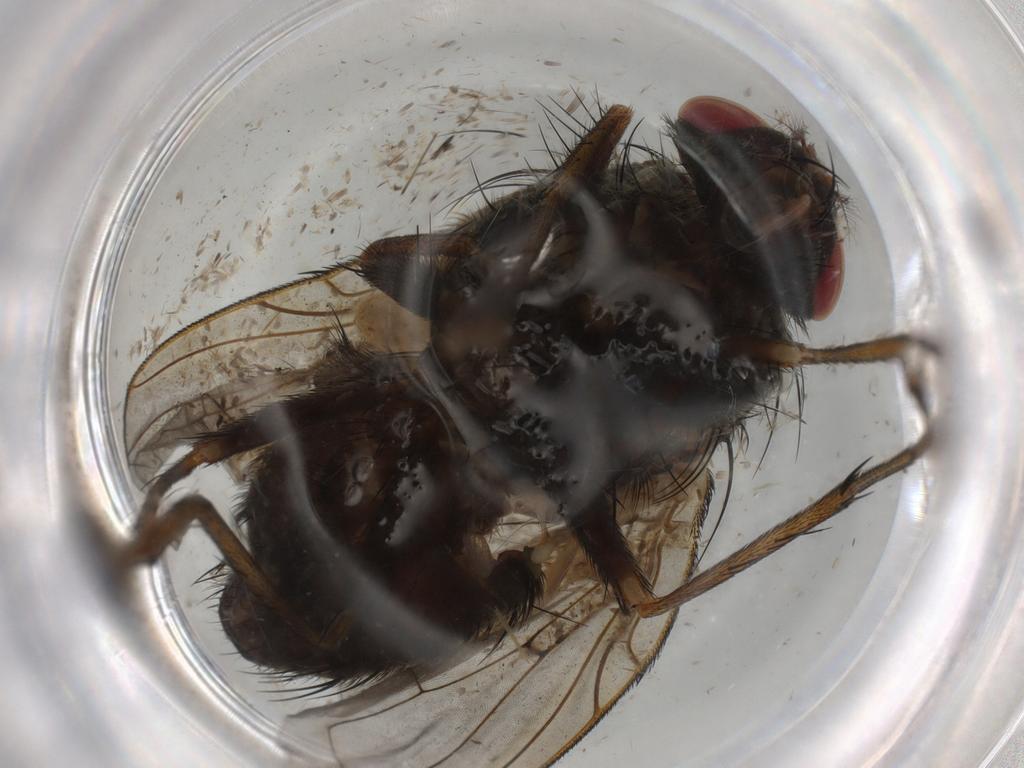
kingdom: Animalia
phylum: Arthropoda
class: Insecta
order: Diptera
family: Tachinidae
